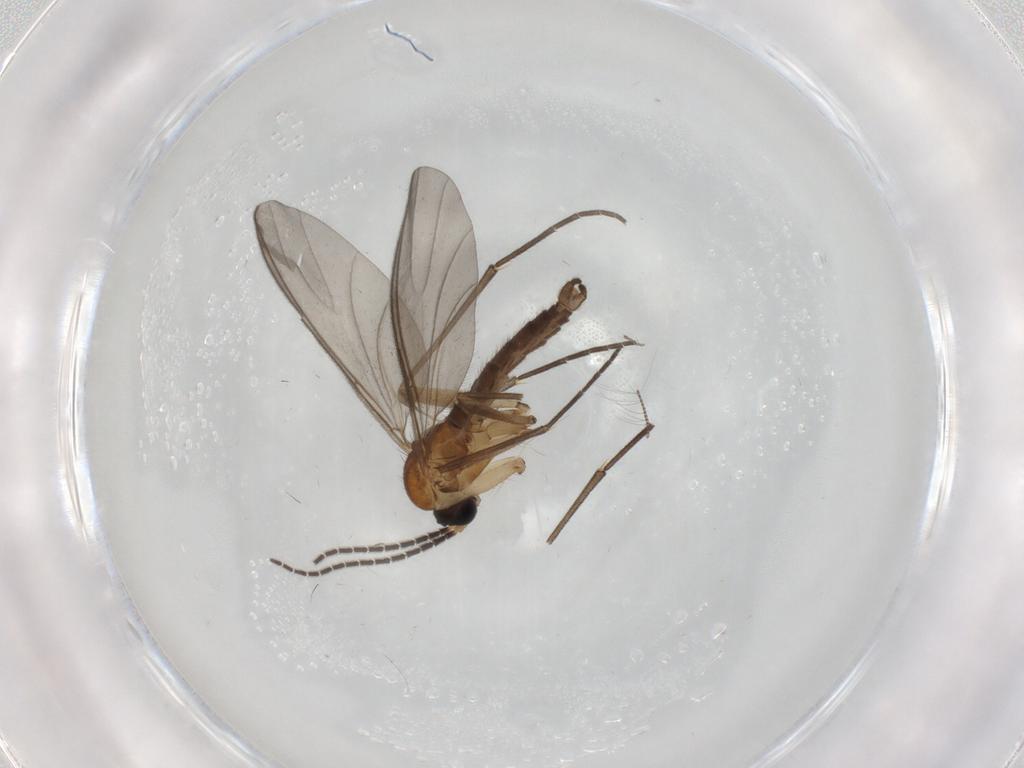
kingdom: Animalia
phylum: Arthropoda
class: Insecta
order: Diptera
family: Sciaridae
